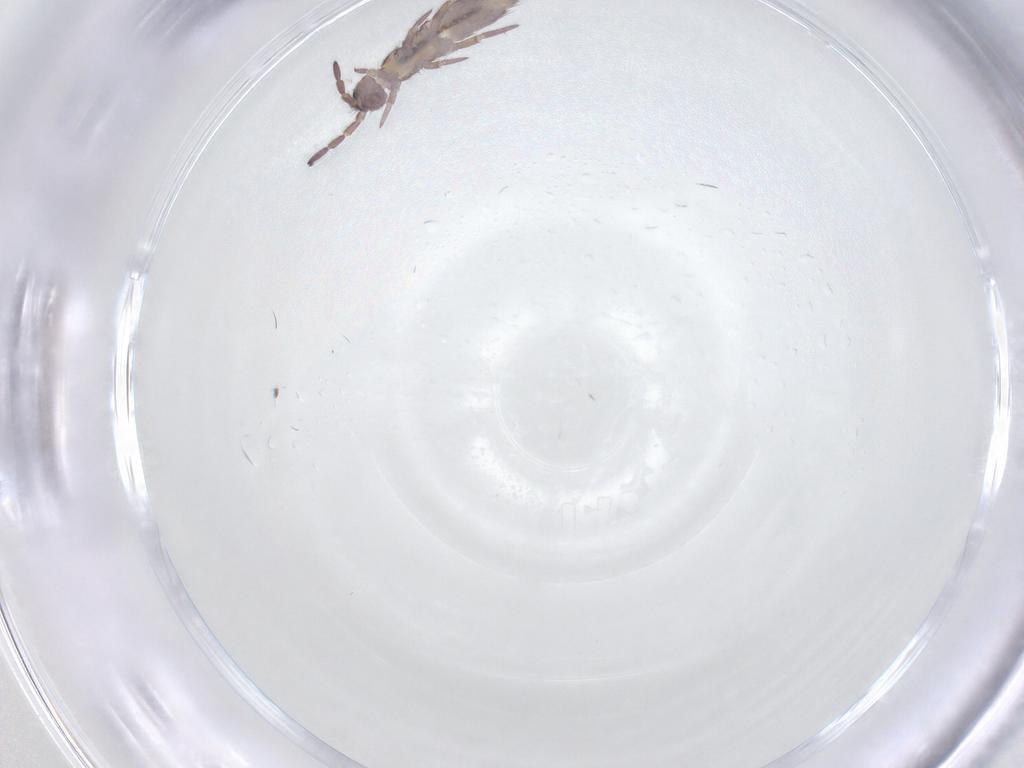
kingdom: Animalia
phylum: Arthropoda
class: Collembola
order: Entomobryomorpha
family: Isotomidae
